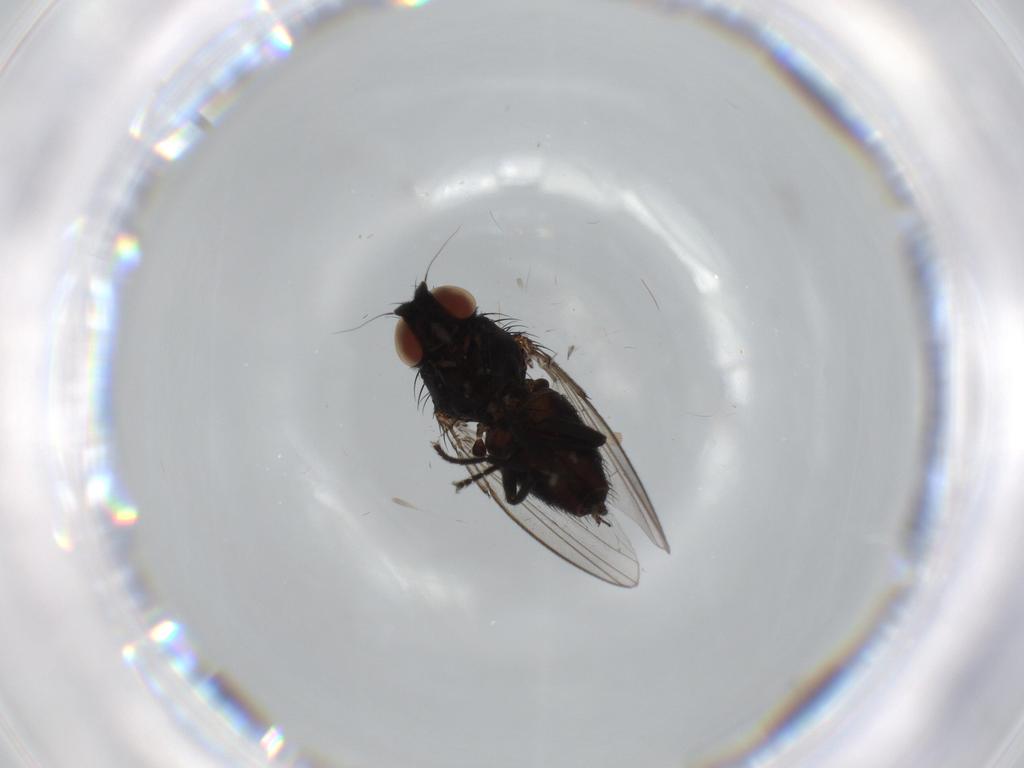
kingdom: Animalia
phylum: Arthropoda
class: Insecta
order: Diptera
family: Milichiidae
